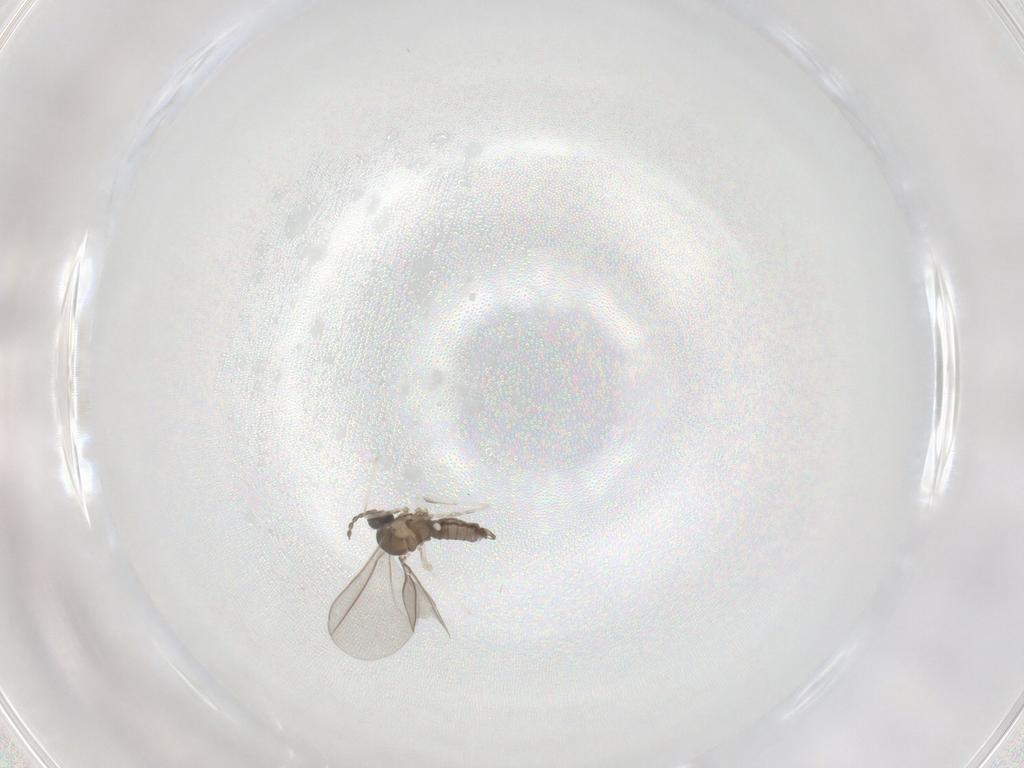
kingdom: Animalia
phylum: Arthropoda
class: Insecta
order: Diptera
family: Cecidomyiidae
